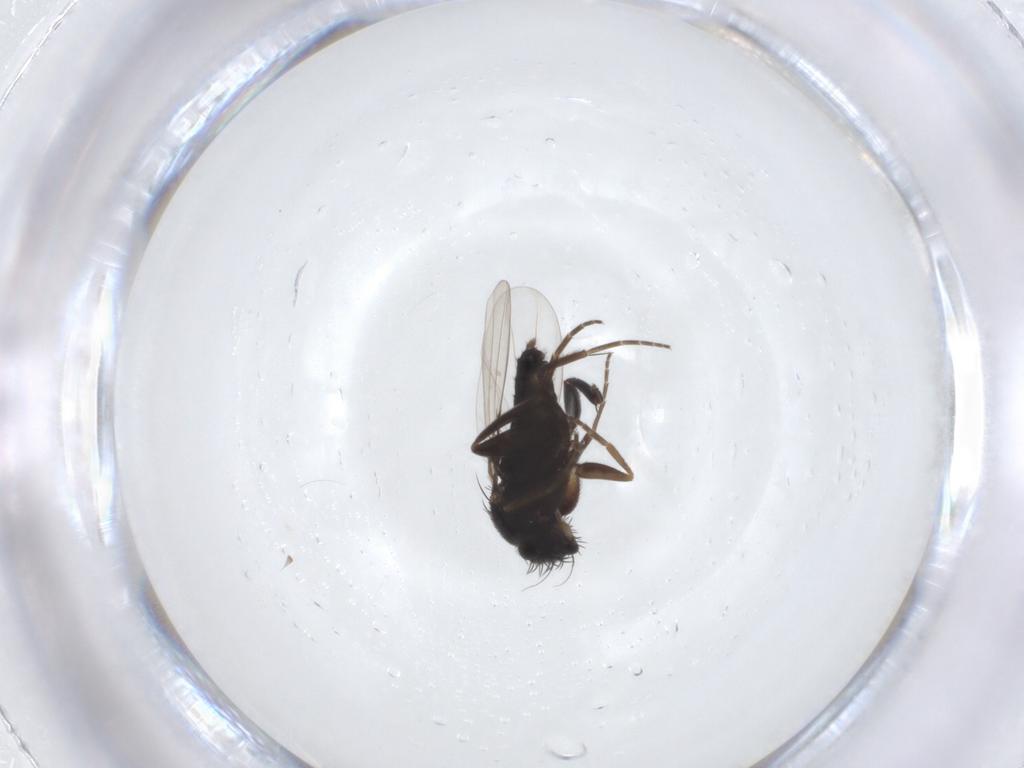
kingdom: Animalia
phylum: Arthropoda
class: Insecta
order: Diptera
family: Phoridae
